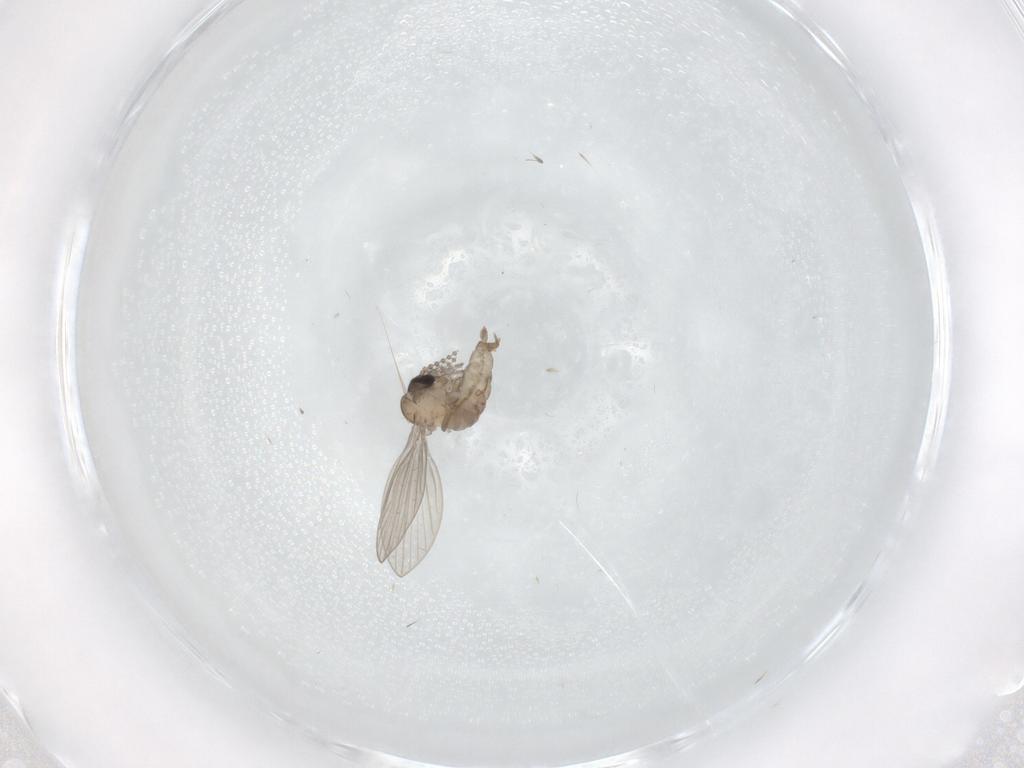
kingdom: Animalia
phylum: Arthropoda
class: Insecta
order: Diptera
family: Psychodidae
